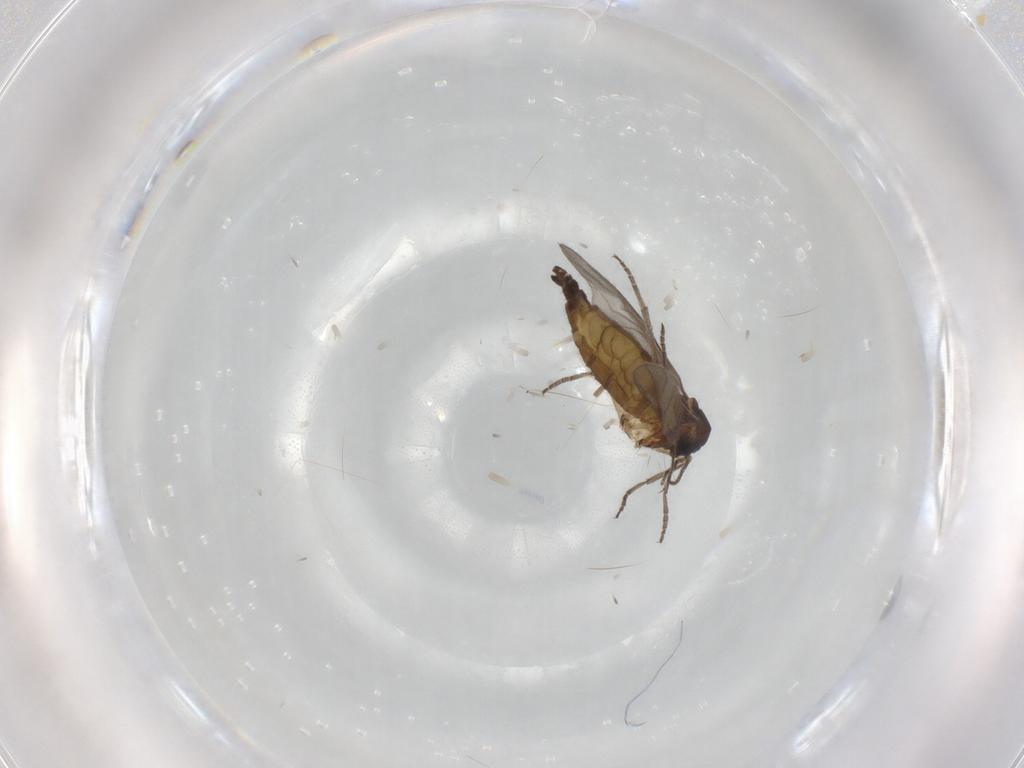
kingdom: Animalia
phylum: Arthropoda
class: Insecta
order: Diptera
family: Sciaridae
